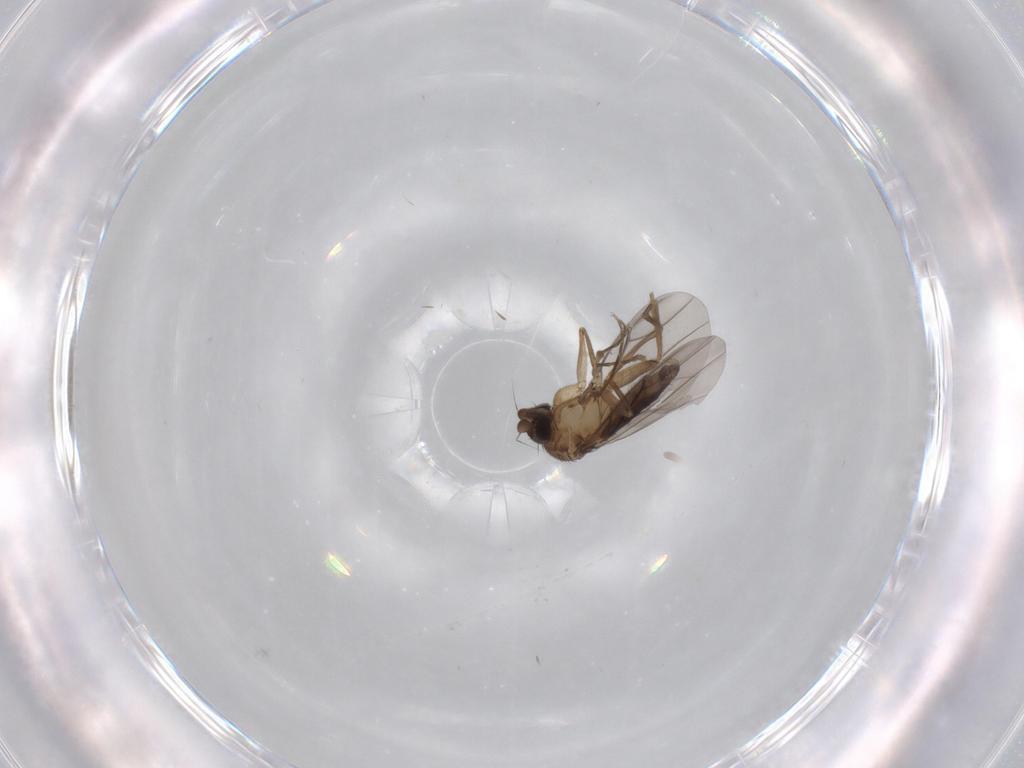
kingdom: Animalia
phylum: Arthropoda
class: Insecta
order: Diptera
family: Phoridae
